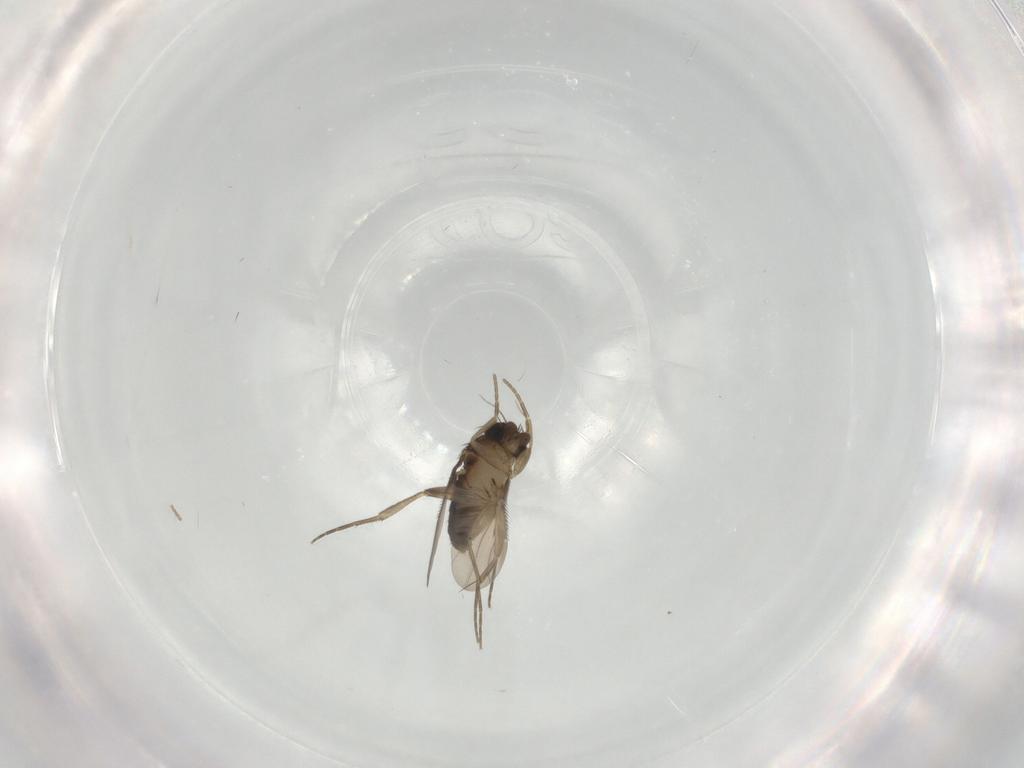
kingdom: Animalia
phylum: Arthropoda
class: Insecta
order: Diptera
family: Phoridae
